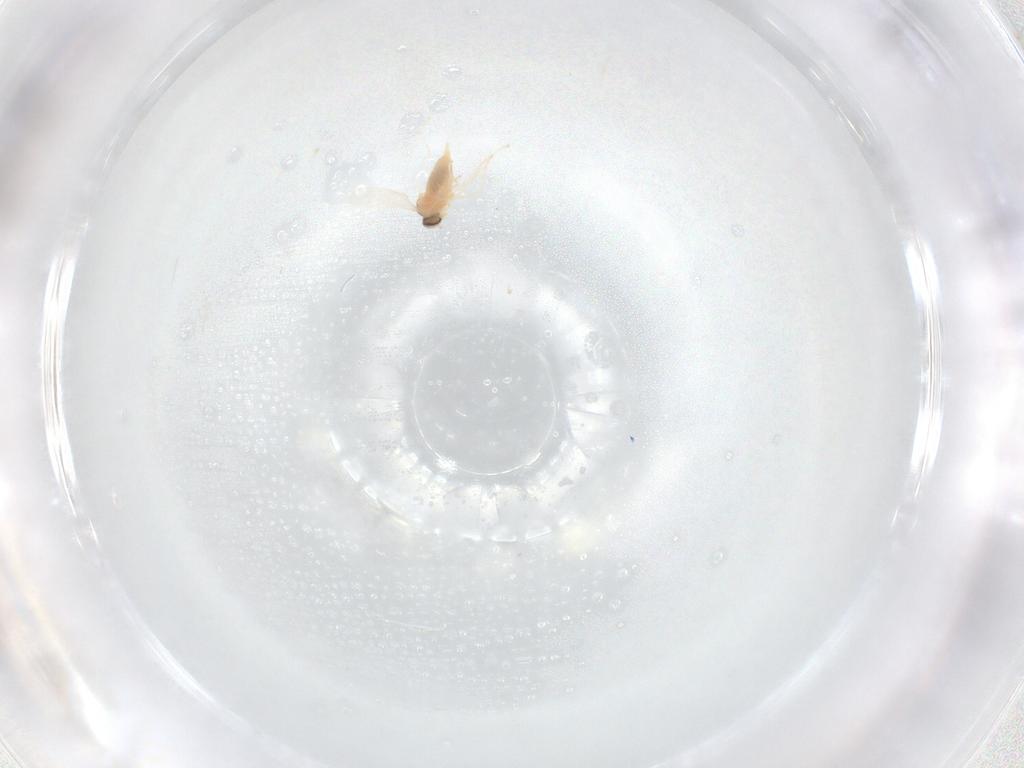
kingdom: Animalia
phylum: Arthropoda
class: Insecta
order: Diptera
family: Cecidomyiidae
